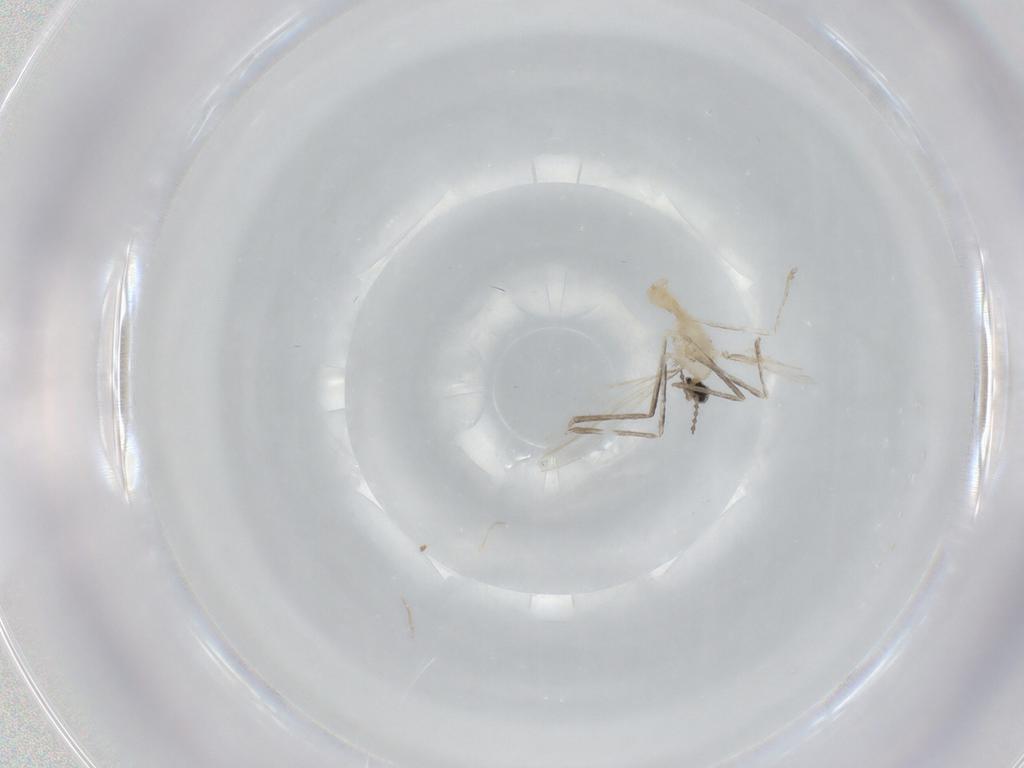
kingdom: Animalia
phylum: Arthropoda
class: Insecta
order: Diptera
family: Cecidomyiidae
